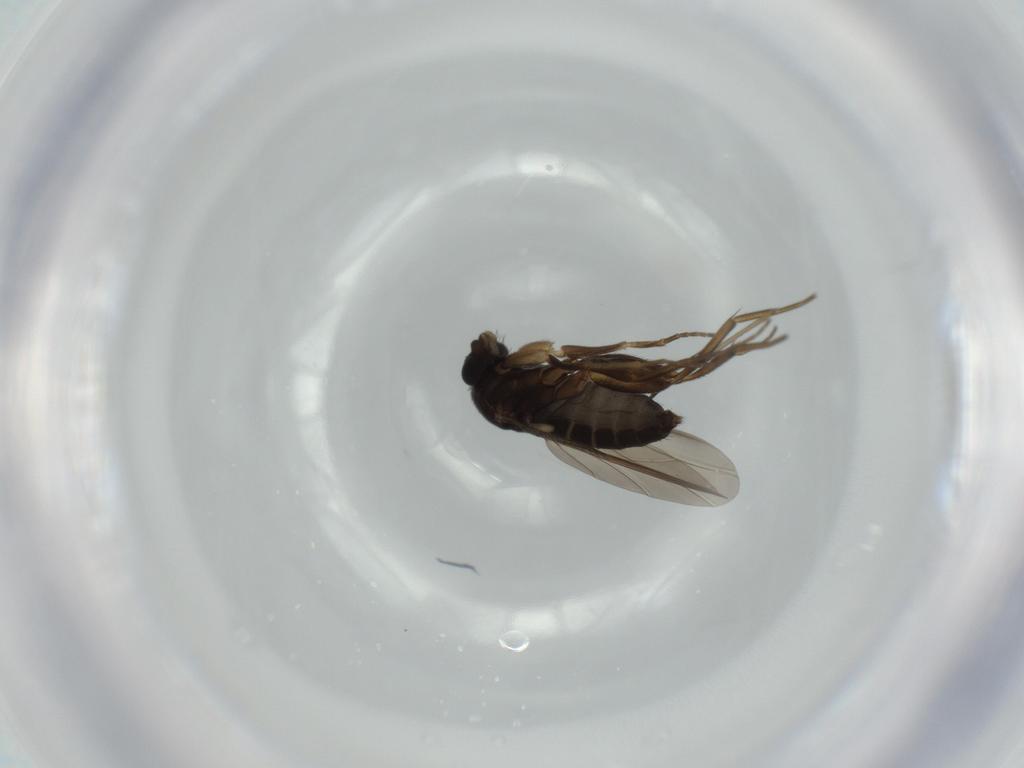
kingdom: Animalia
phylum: Arthropoda
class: Insecta
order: Diptera
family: Phoridae
